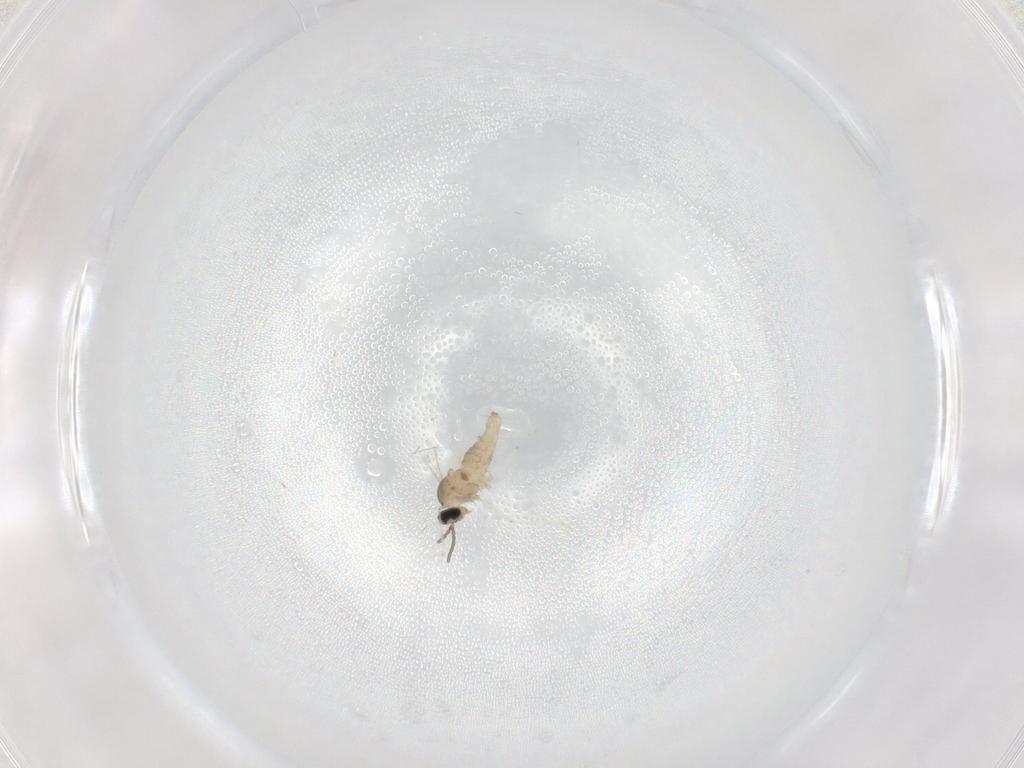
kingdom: Animalia
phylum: Arthropoda
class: Insecta
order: Diptera
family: Cecidomyiidae
